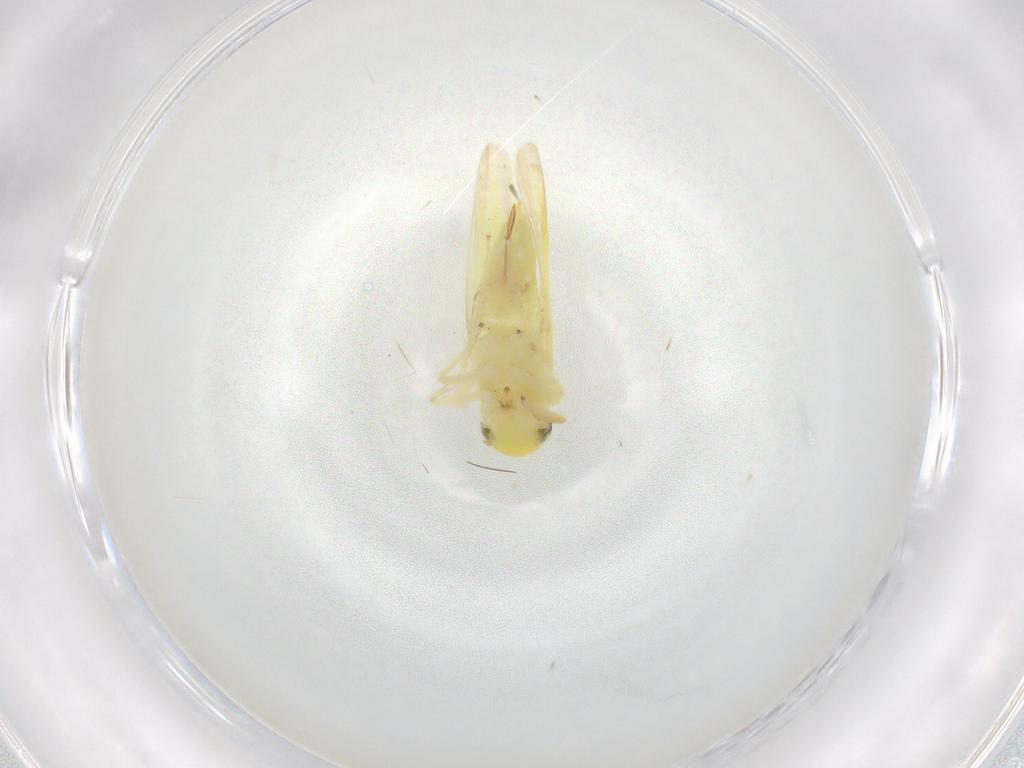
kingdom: Animalia
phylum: Arthropoda
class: Insecta
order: Hemiptera
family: Cicadellidae
